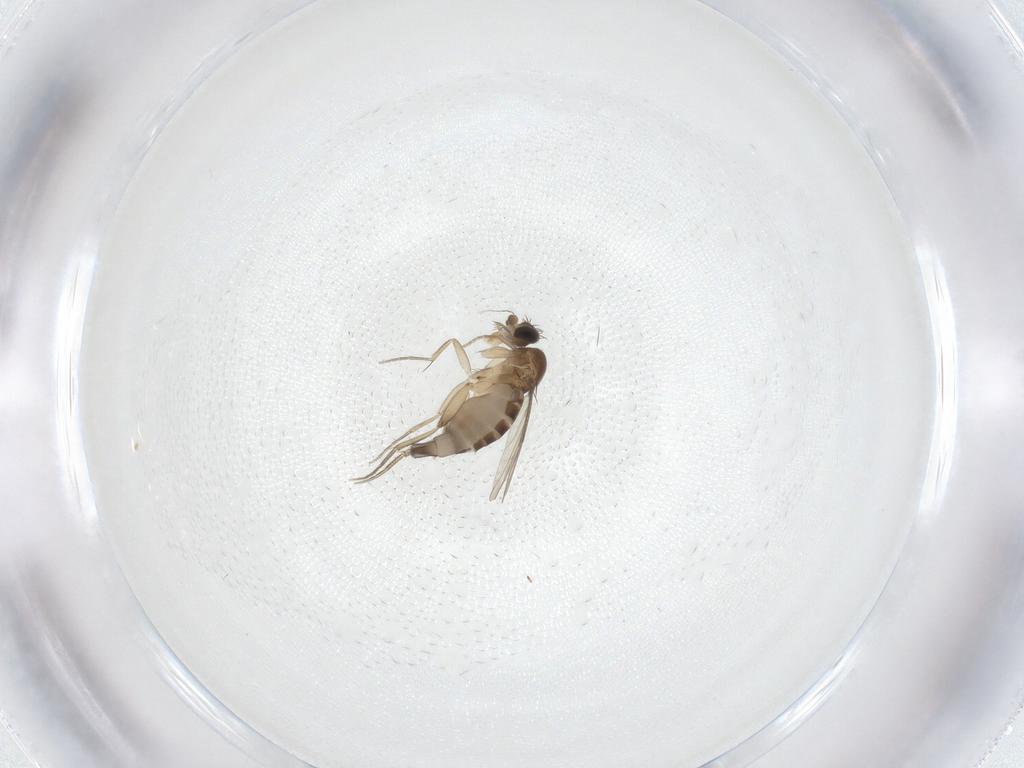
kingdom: Animalia
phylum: Arthropoda
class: Insecta
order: Diptera
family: Phoridae
